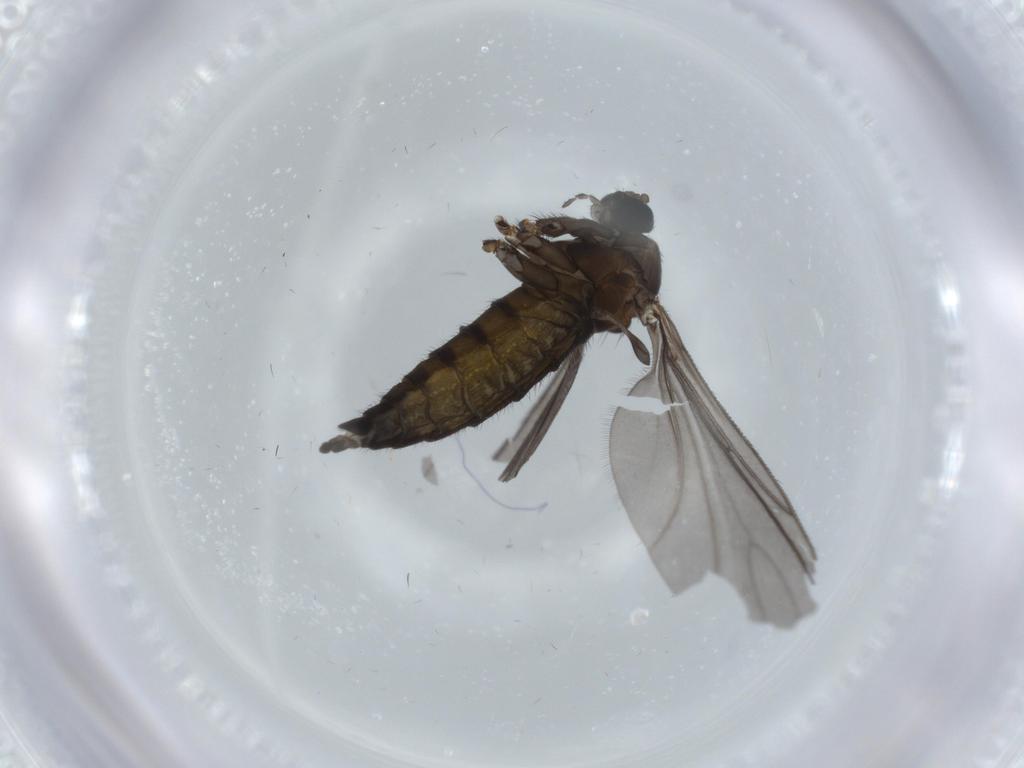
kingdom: Animalia
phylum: Arthropoda
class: Insecta
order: Diptera
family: Sciaridae
